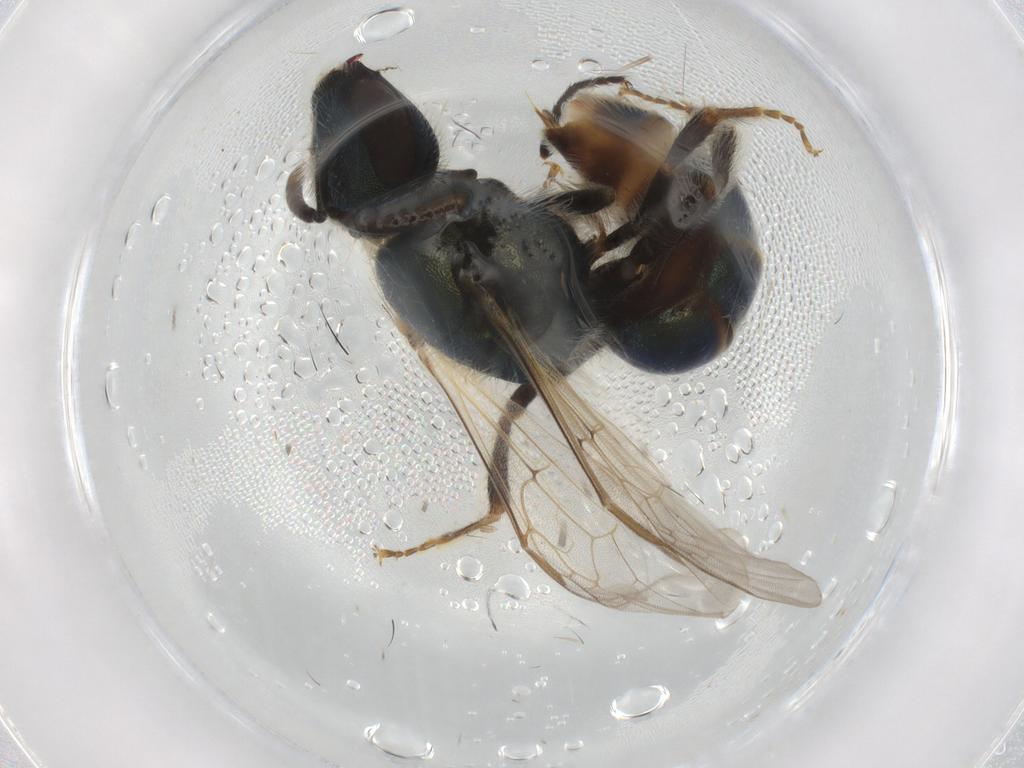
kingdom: Animalia
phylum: Arthropoda
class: Insecta
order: Hymenoptera
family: Halictidae
